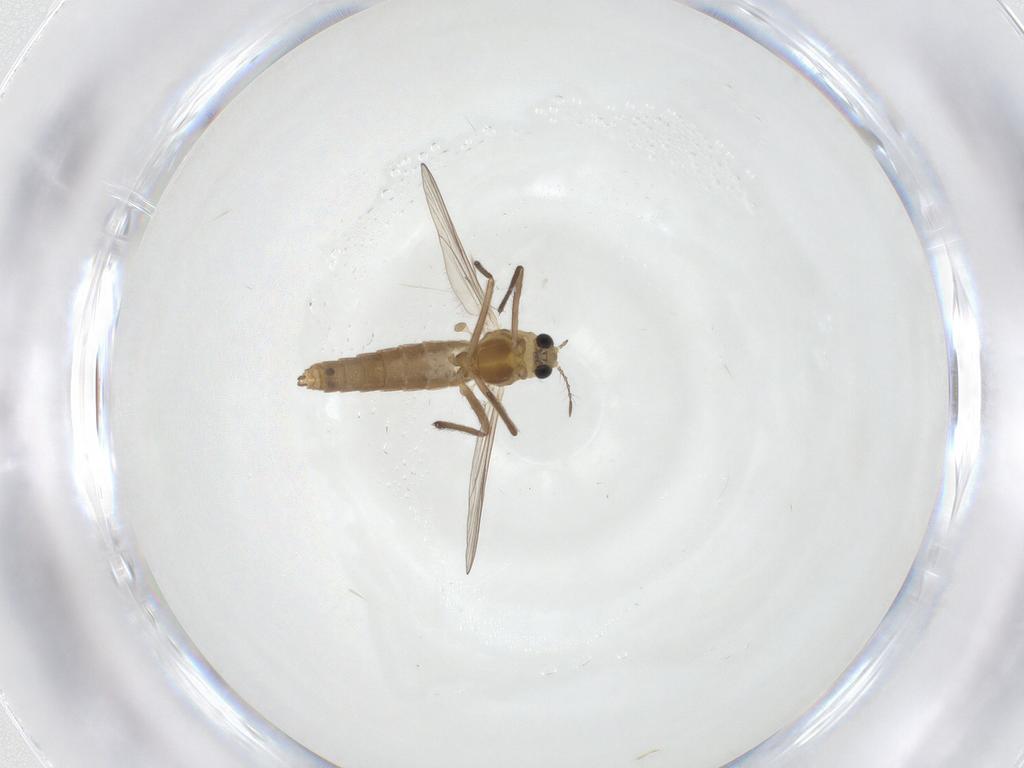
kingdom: Animalia
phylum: Arthropoda
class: Insecta
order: Diptera
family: Chironomidae
